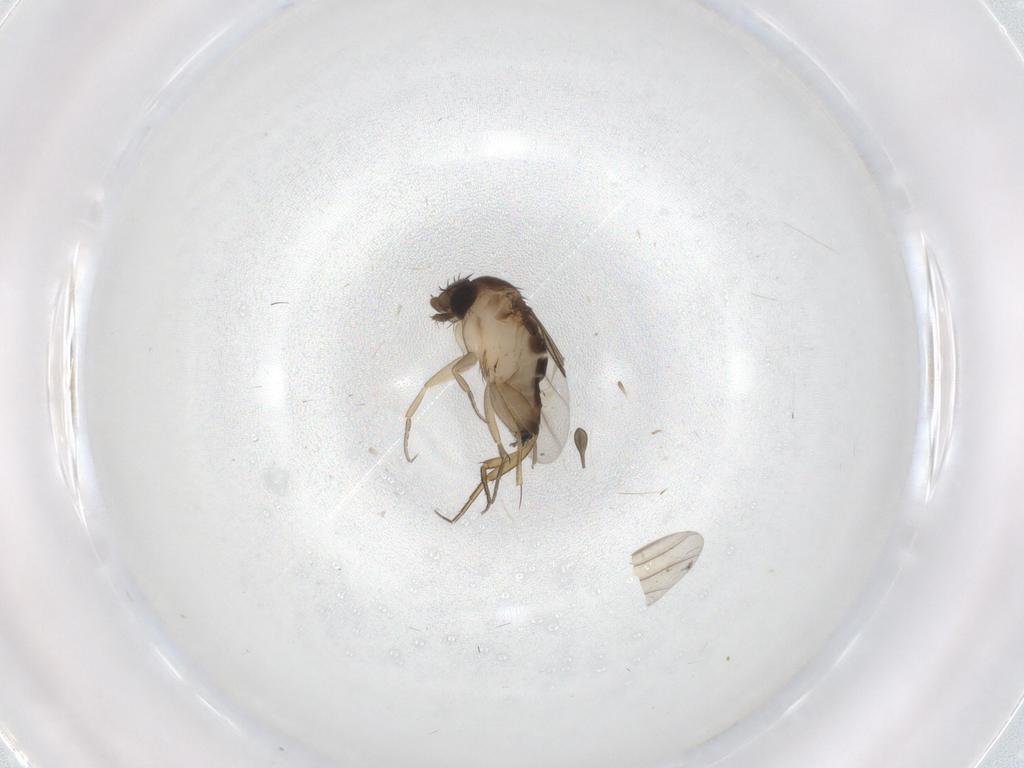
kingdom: Animalia
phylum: Arthropoda
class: Insecta
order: Diptera
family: Phoridae
